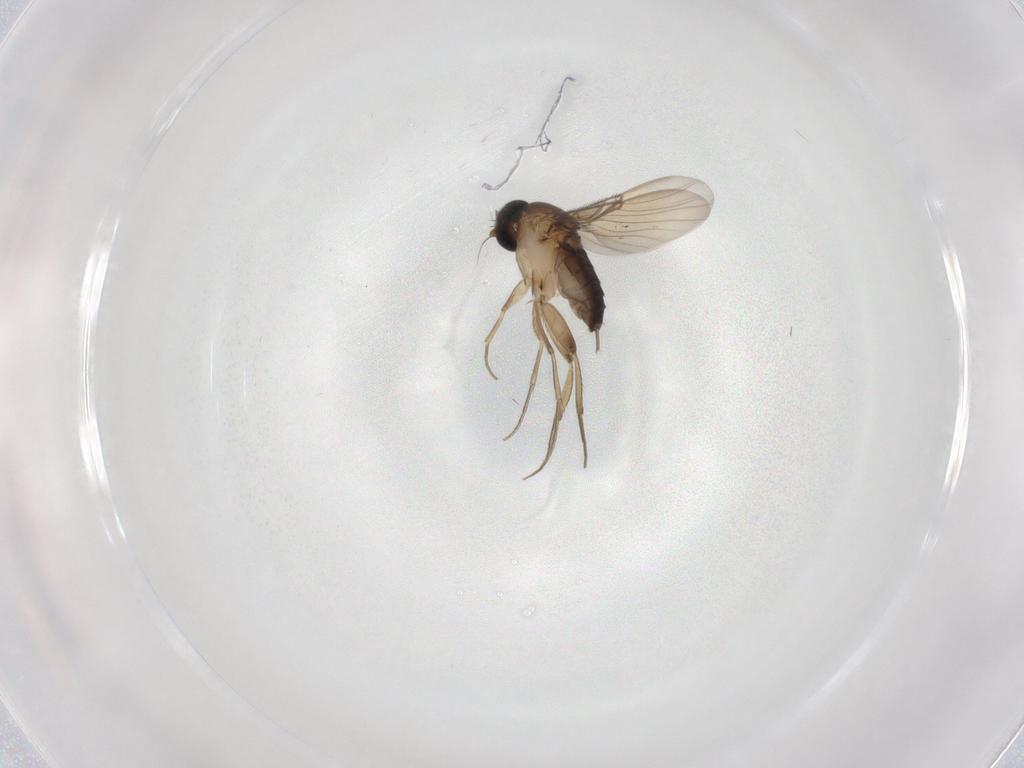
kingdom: Animalia
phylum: Arthropoda
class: Insecta
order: Diptera
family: Phoridae
